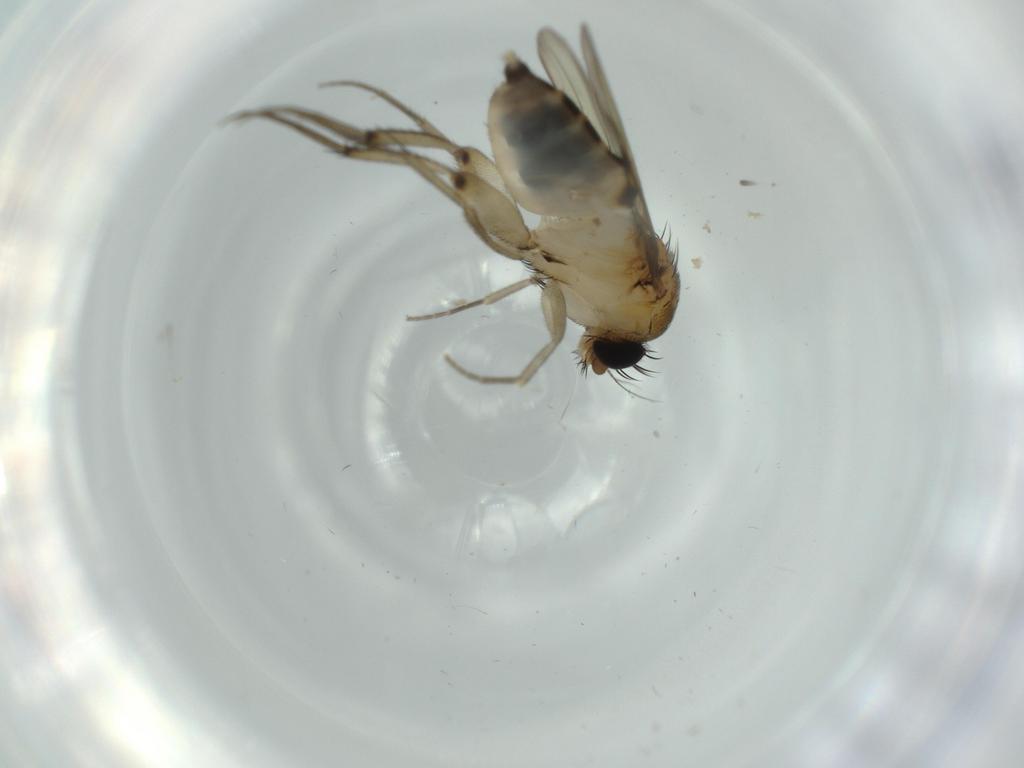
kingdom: Animalia
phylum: Arthropoda
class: Insecta
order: Diptera
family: Phoridae
